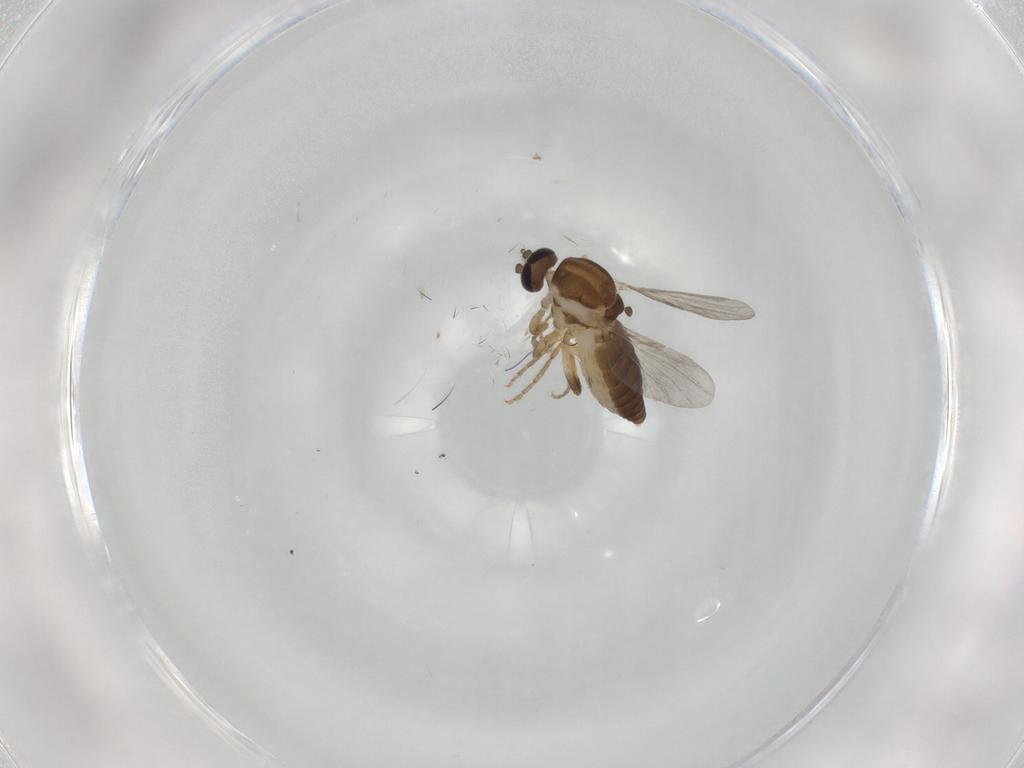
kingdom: Animalia
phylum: Arthropoda
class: Insecta
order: Diptera
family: Ceratopogonidae
